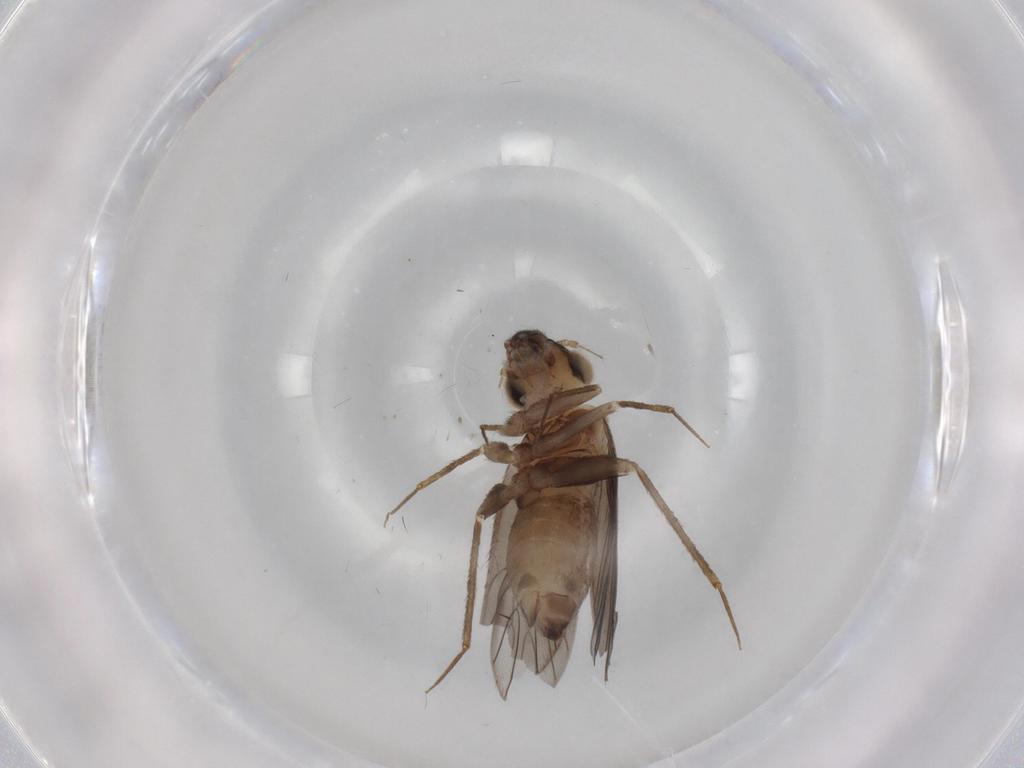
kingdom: Animalia
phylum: Arthropoda
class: Insecta
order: Psocodea
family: Lepidopsocidae
